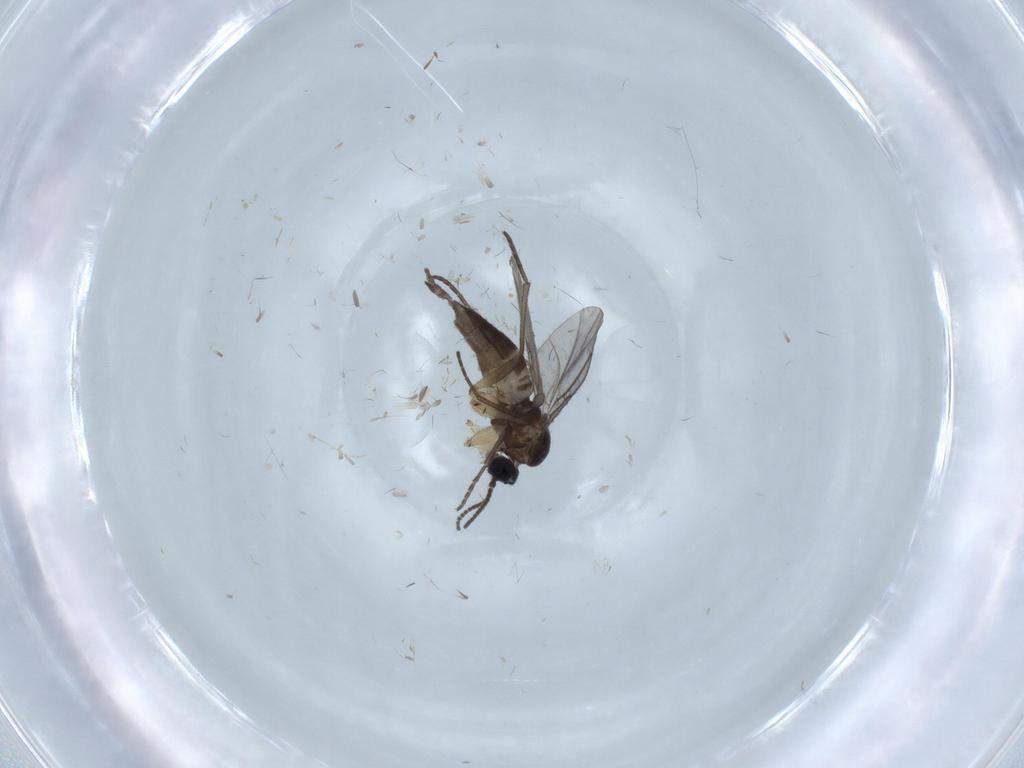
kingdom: Animalia
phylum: Arthropoda
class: Insecta
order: Diptera
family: Sciaridae
